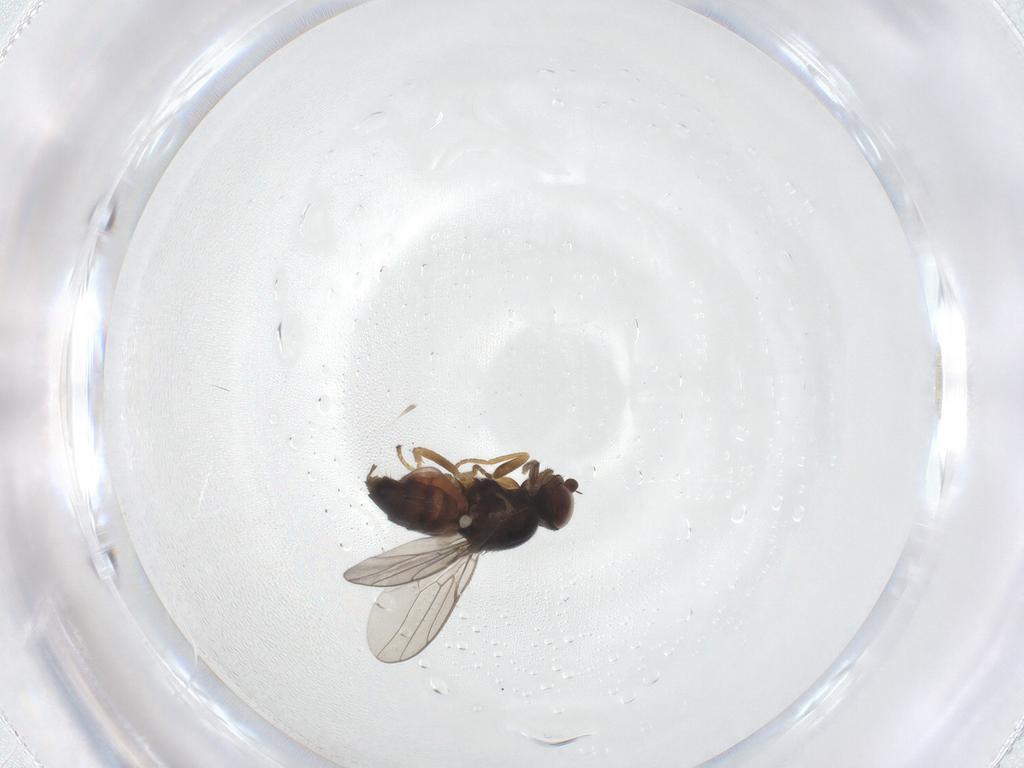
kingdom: Animalia
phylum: Arthropoda
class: Insecta
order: Diptera
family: Chloropidae
